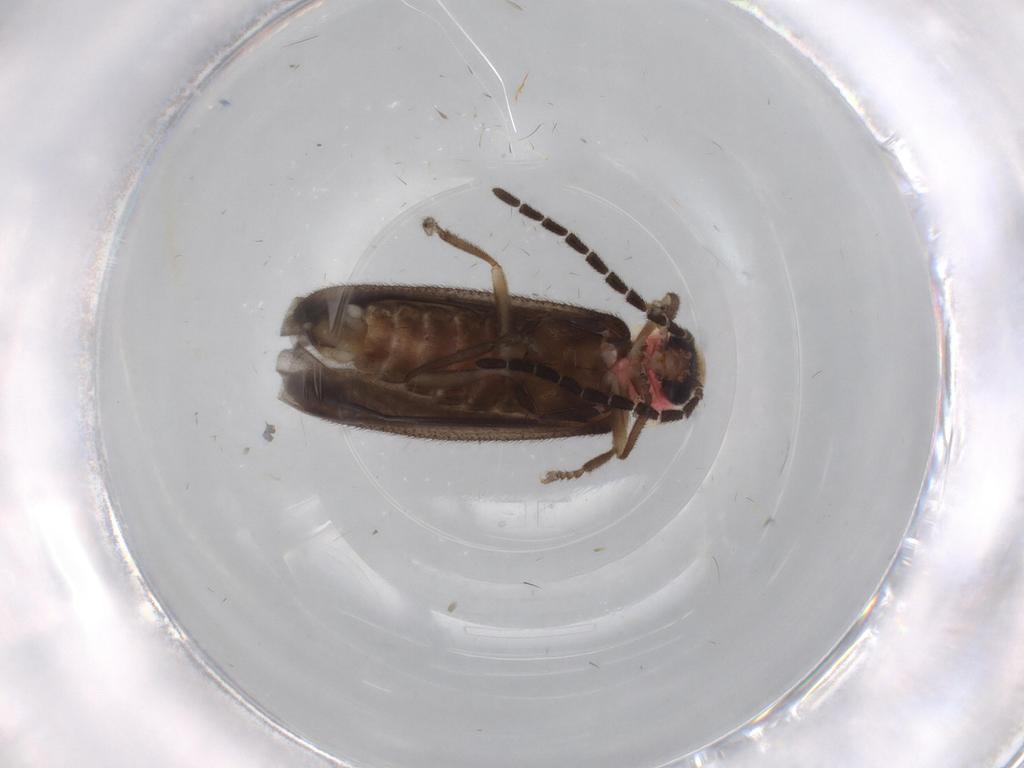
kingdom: Animalia
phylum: Arthropoda
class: Insecta
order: Coleoptera
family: Lampyridae
